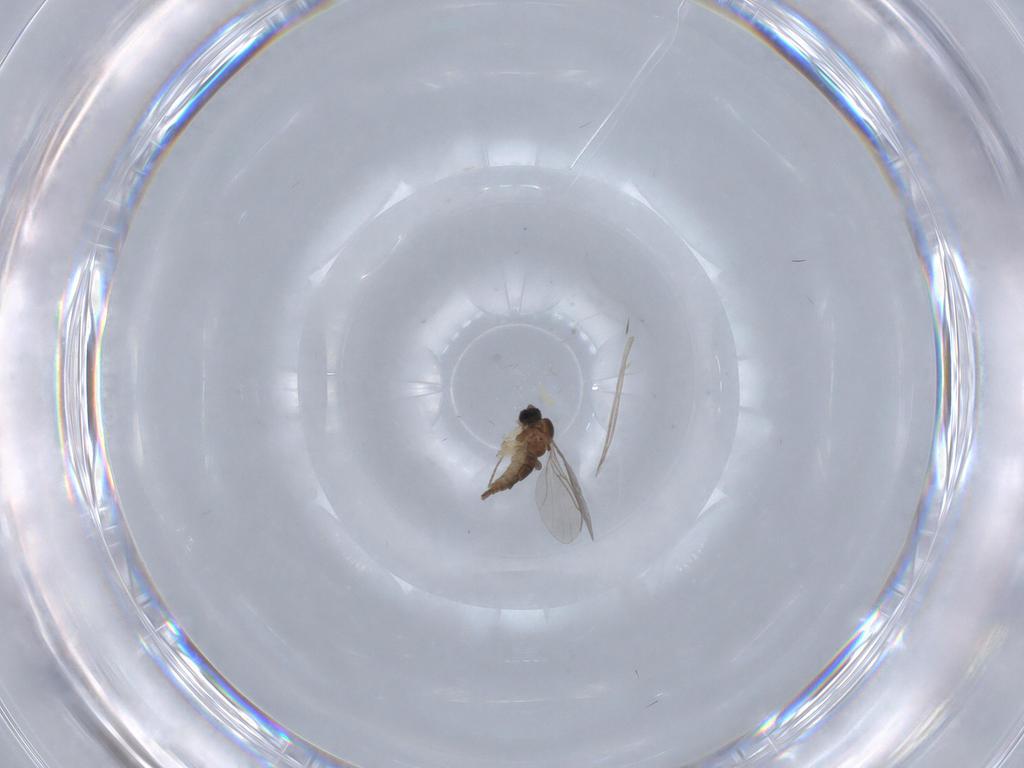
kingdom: Animalia
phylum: Arthropoda
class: Insecta
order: Diptera
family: Sciaridae
